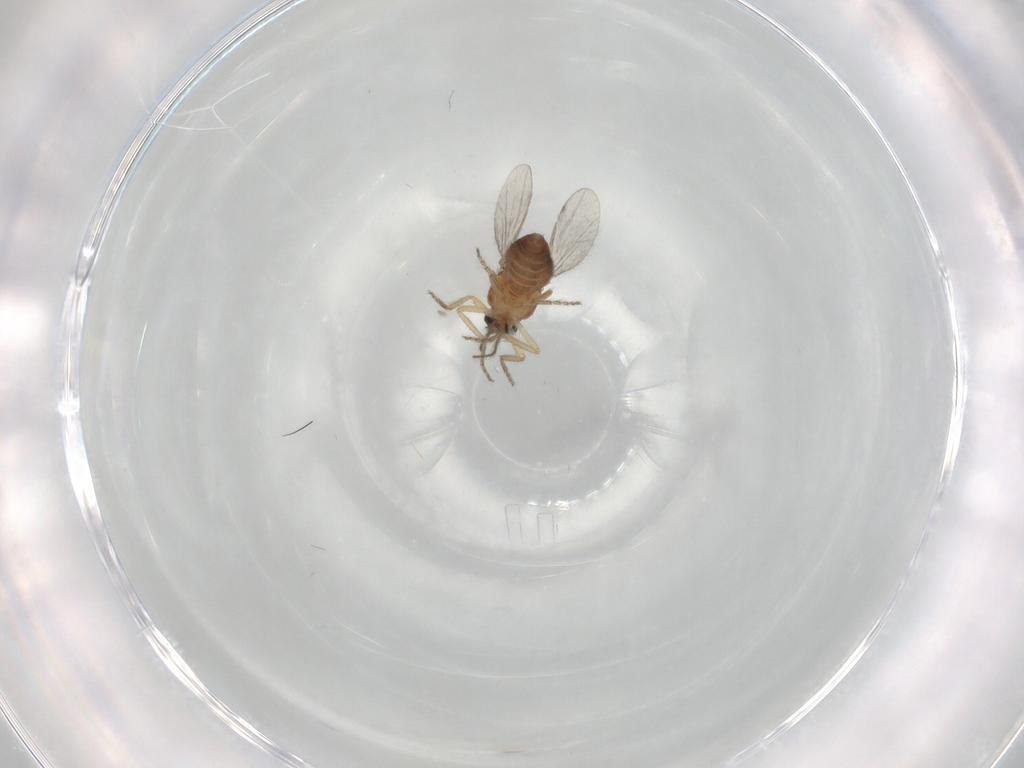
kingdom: Animalia
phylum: Arthropoda
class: Insecta
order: Diptera
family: Ceratopogonidae
